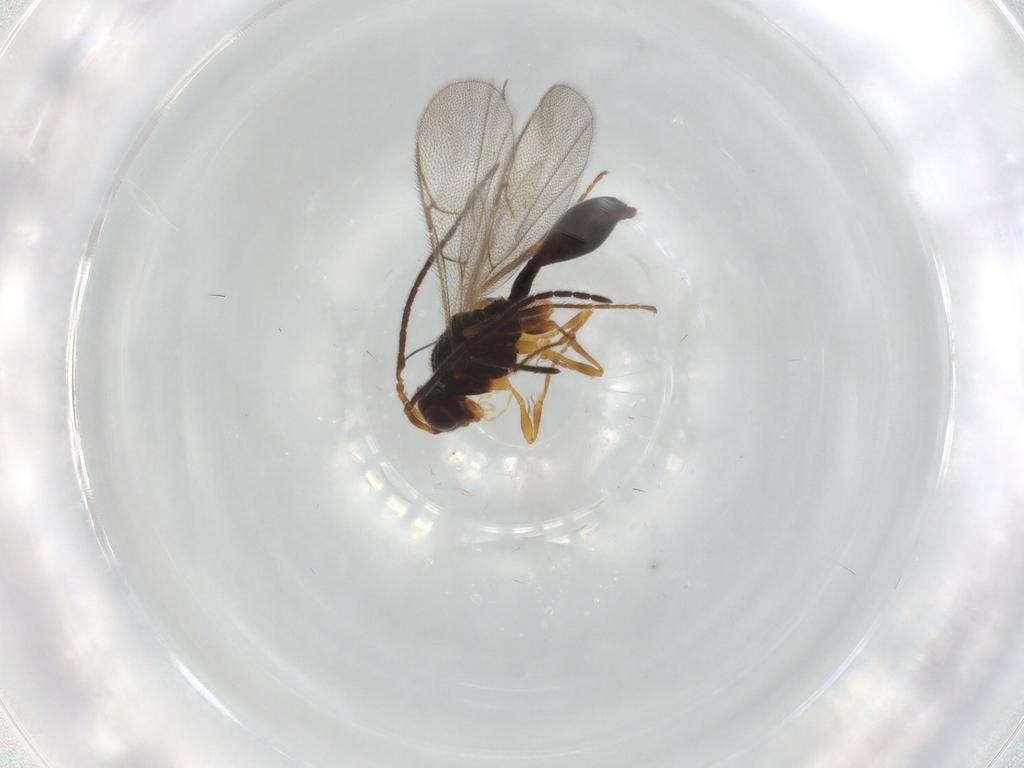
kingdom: Animalia
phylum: Arthropoda
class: Insecta
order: Hymenoptera
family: Diapriidae
